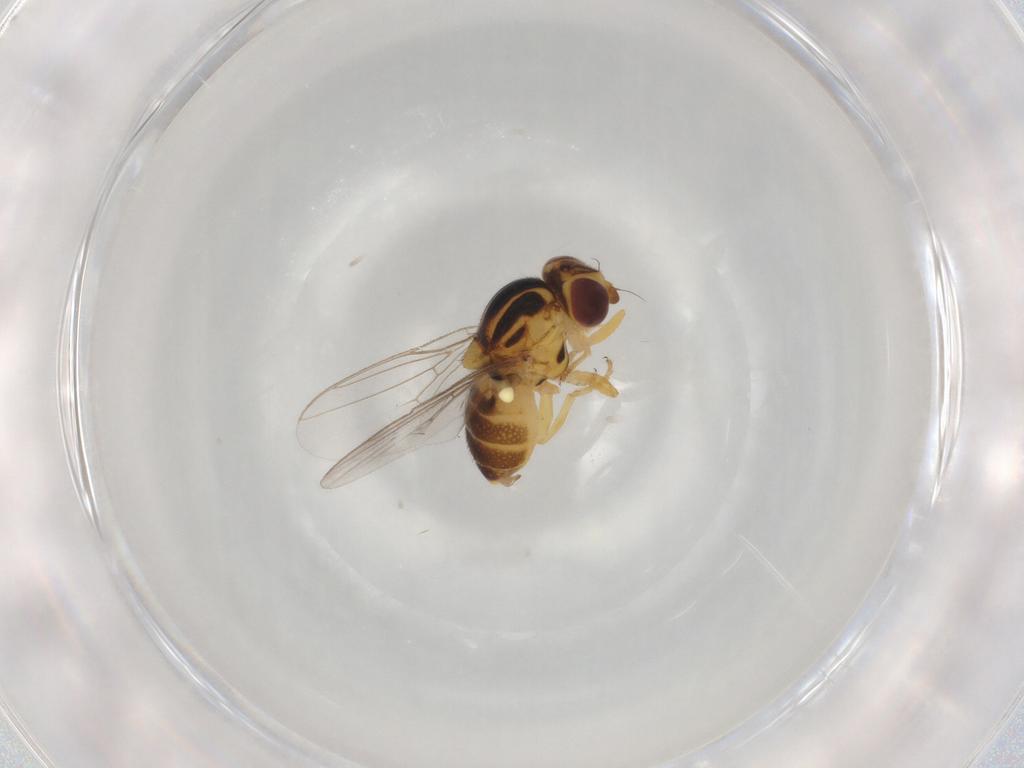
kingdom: Animalia
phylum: Arthropoda
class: Insecta
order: Diptera
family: Chloropidae
